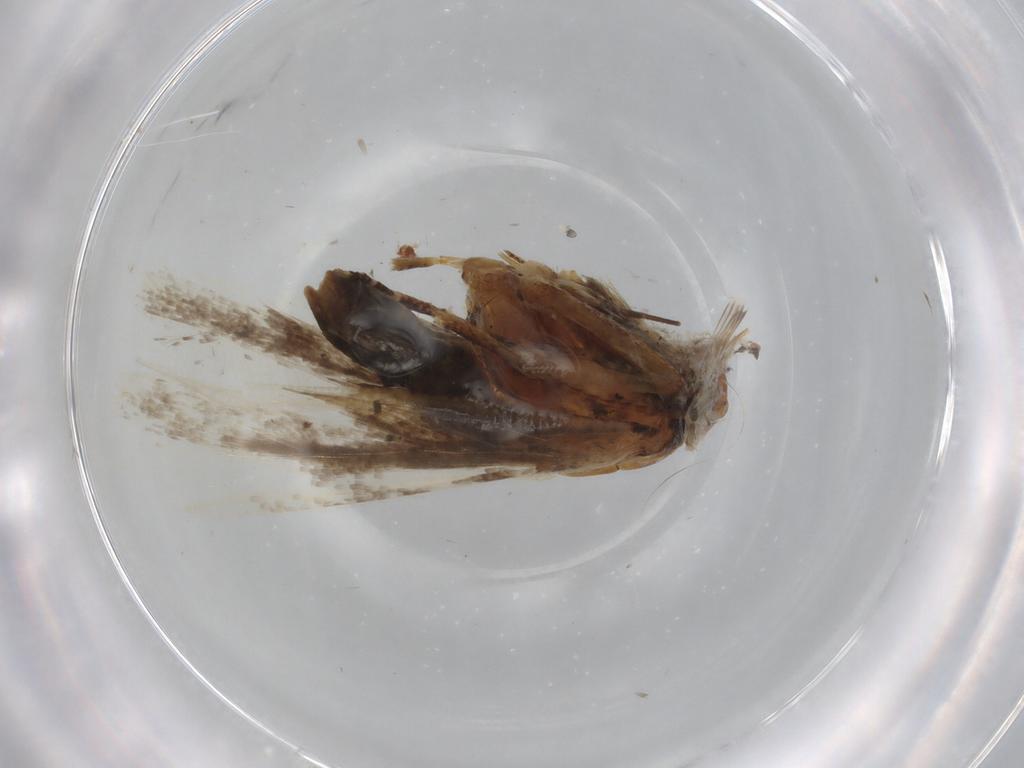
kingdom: Animalia
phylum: Arthropoda
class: Insecta
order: Lepidoptera
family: Gelechiidae
